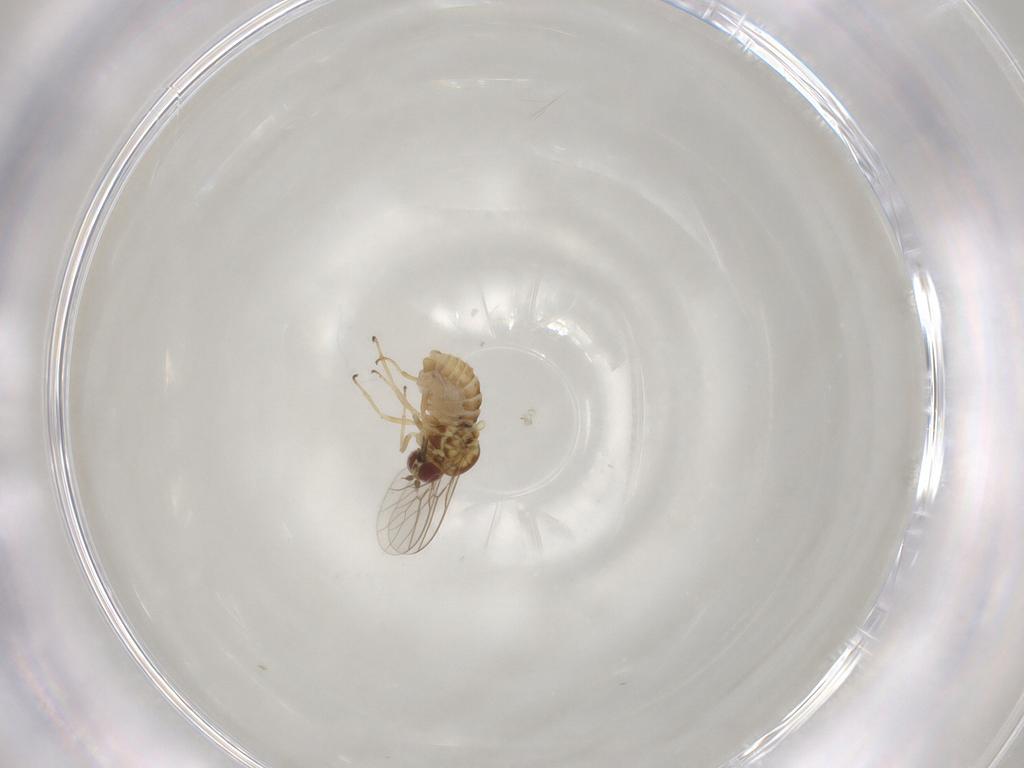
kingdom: Animalia
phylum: Arthropoda
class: Insecta
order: Diptera
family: Mythicomyiidae
